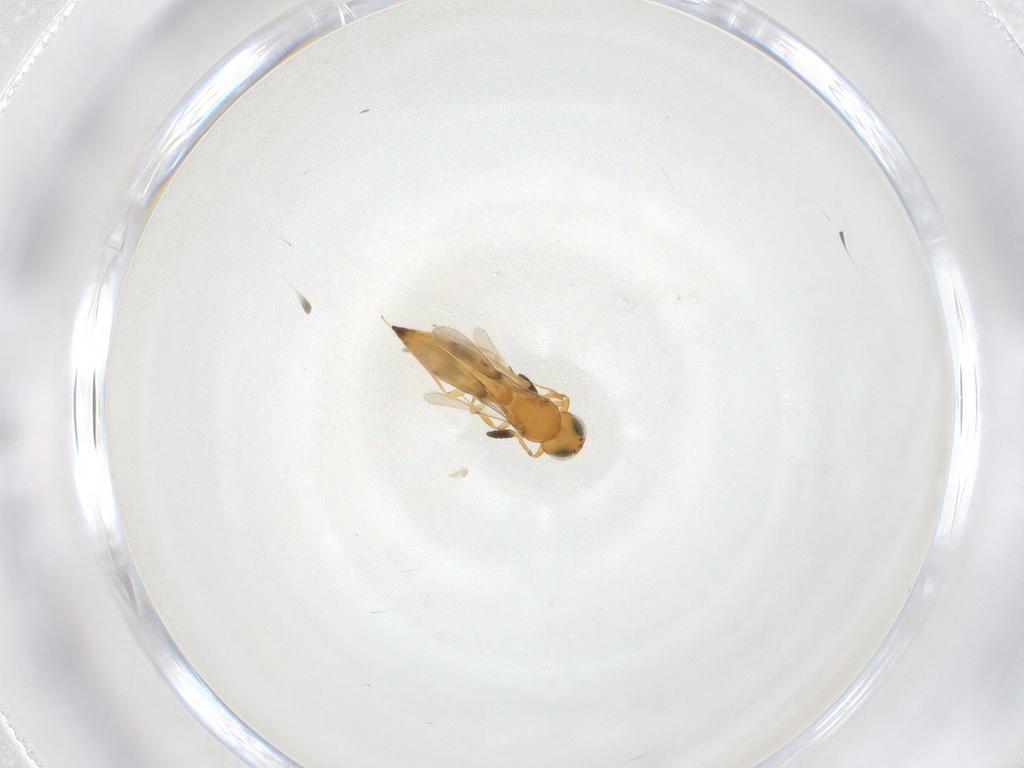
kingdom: Animalia
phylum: Arthropoda
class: Insecta
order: Hymenoptera
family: Scelionidae
